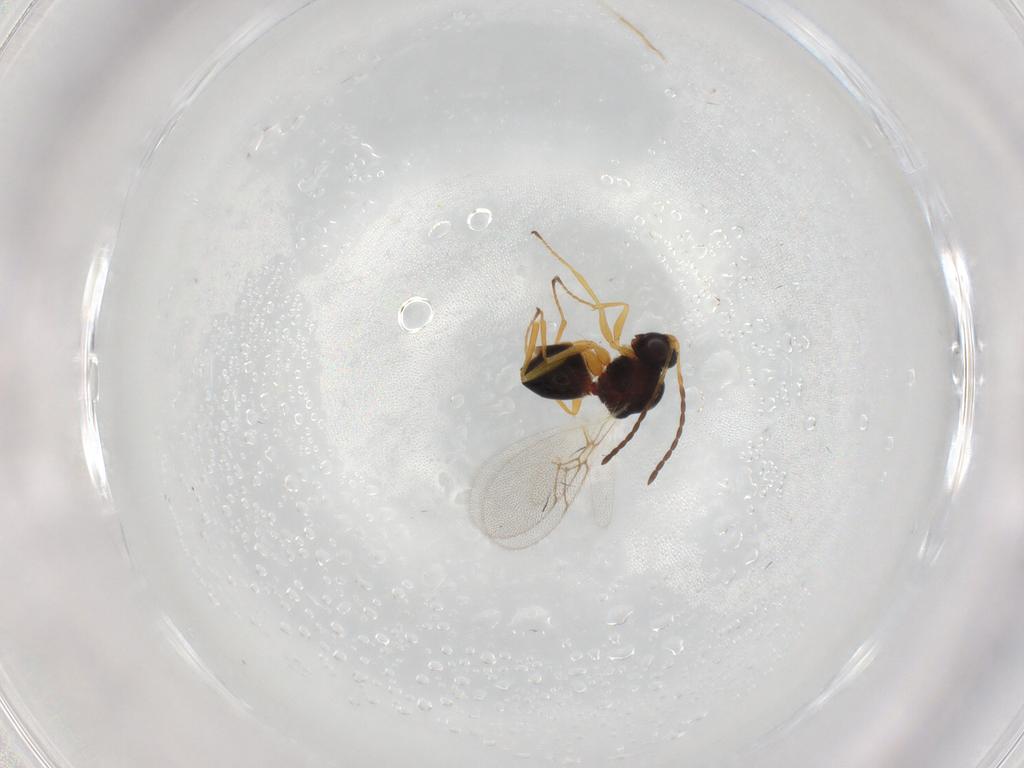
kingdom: Animalia
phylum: Arthropoda
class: Insecta
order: Hymenoptera
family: Figitidae
